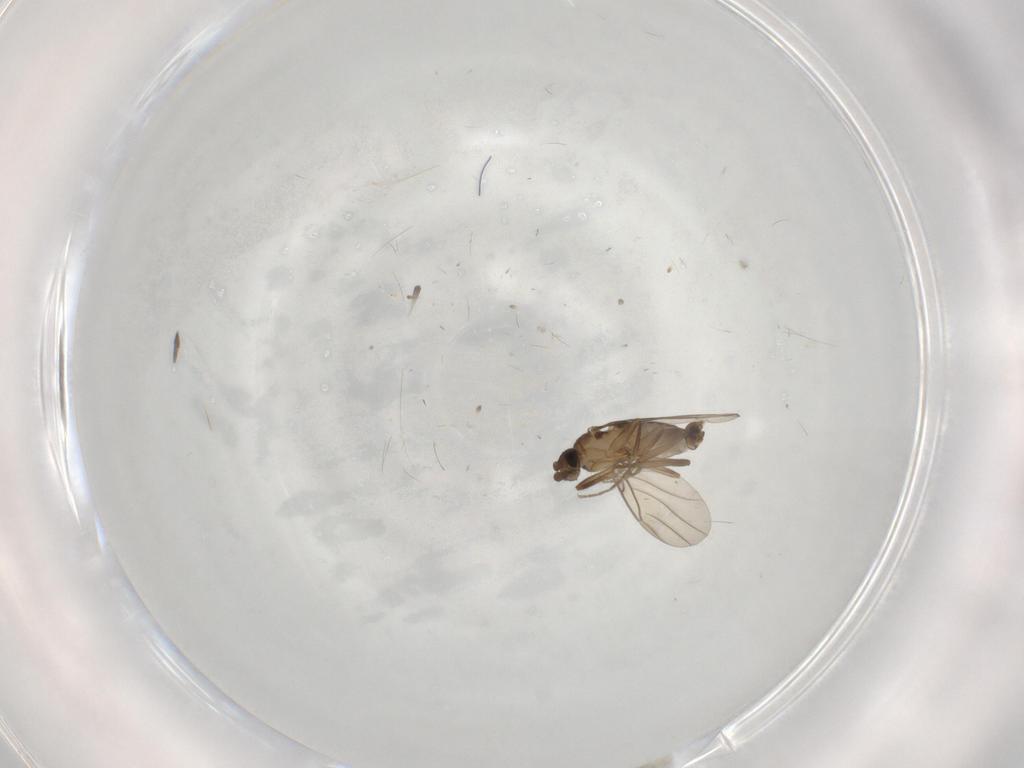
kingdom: Animalia
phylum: Arthropoda
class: Insecta
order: Diptera
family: Phoridae
